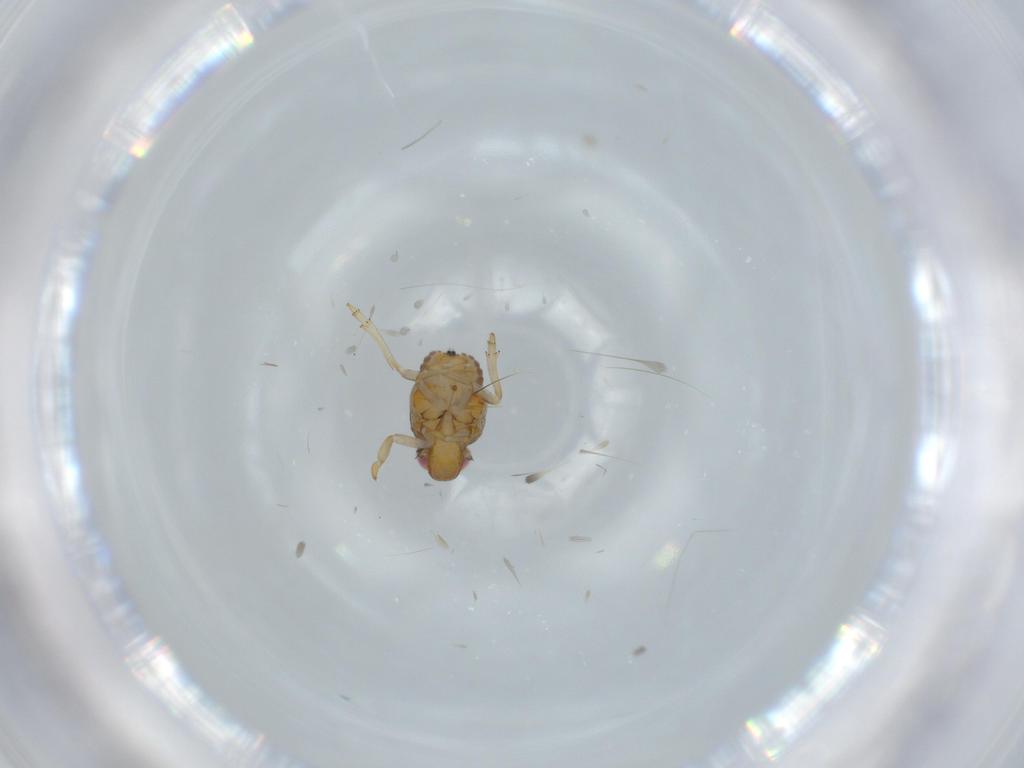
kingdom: Animalia
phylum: Arthropoda
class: Insecta
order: Hemiptera
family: Issidae
